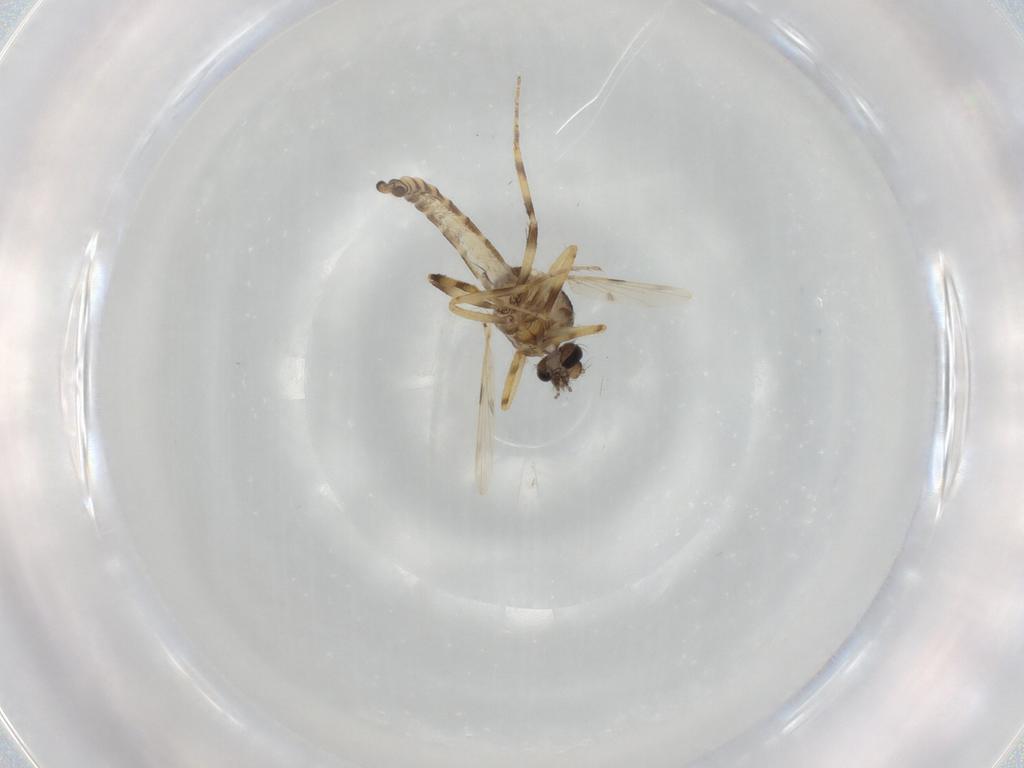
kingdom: Animalia
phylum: Arthropoda
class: Insecta
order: Diptera
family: Ceratopogonidae
